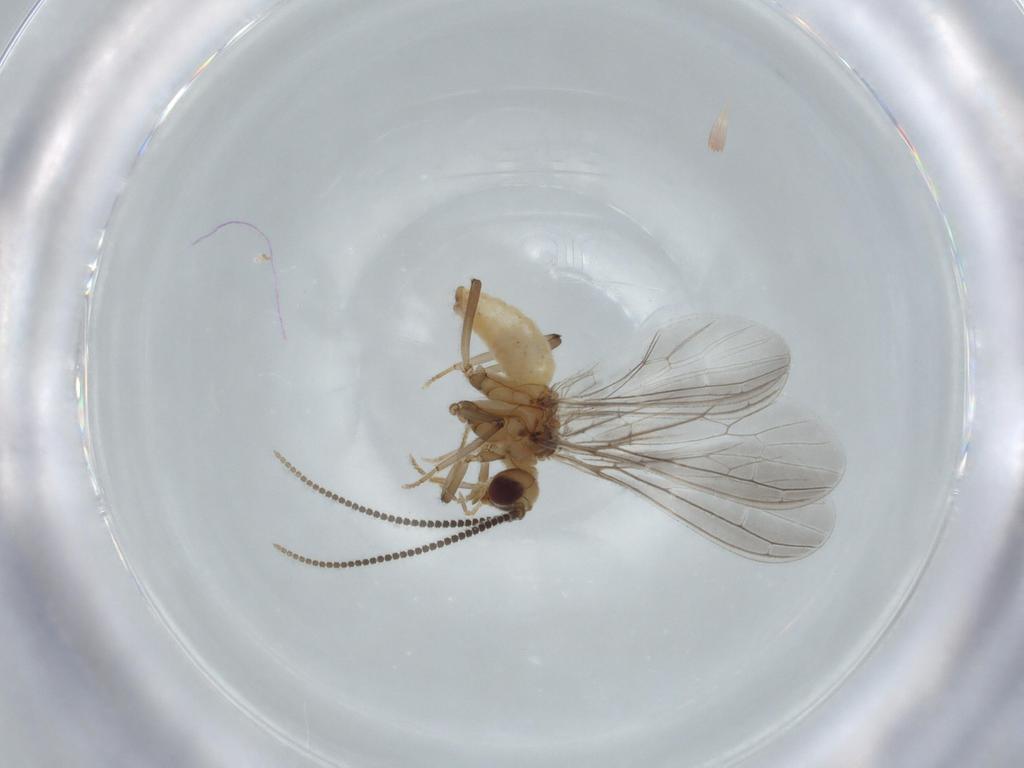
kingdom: Animalia
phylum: Arthropoda
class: Insecta
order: Neuroptera
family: Coniopterygidae
